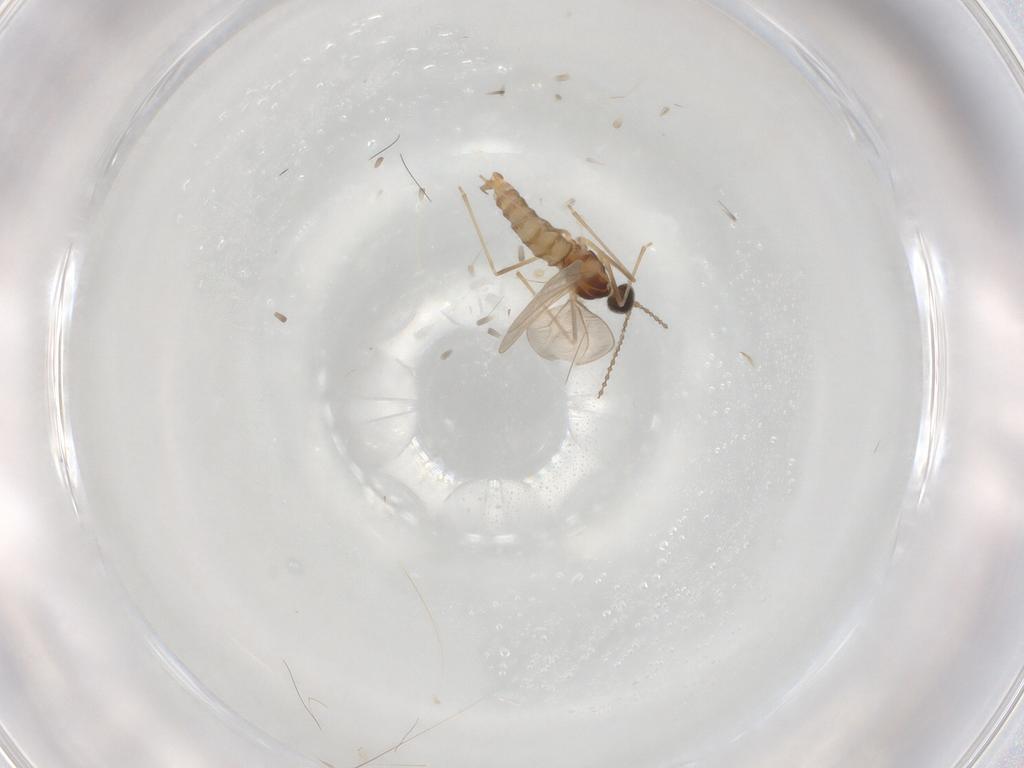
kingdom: Animalia
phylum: Arthropoda
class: Insecta
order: Diptera
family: Cecidomyiidae
